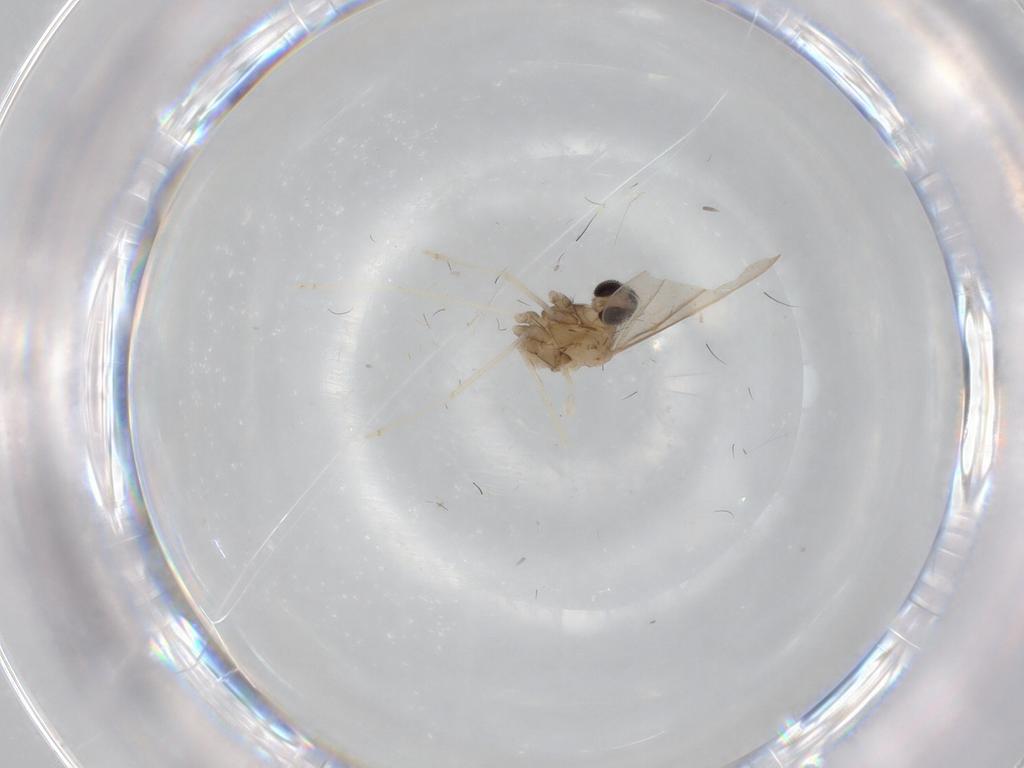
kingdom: Animalia
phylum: Arthropoda
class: Insecta
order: Diptera
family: Cecidomyiidae
